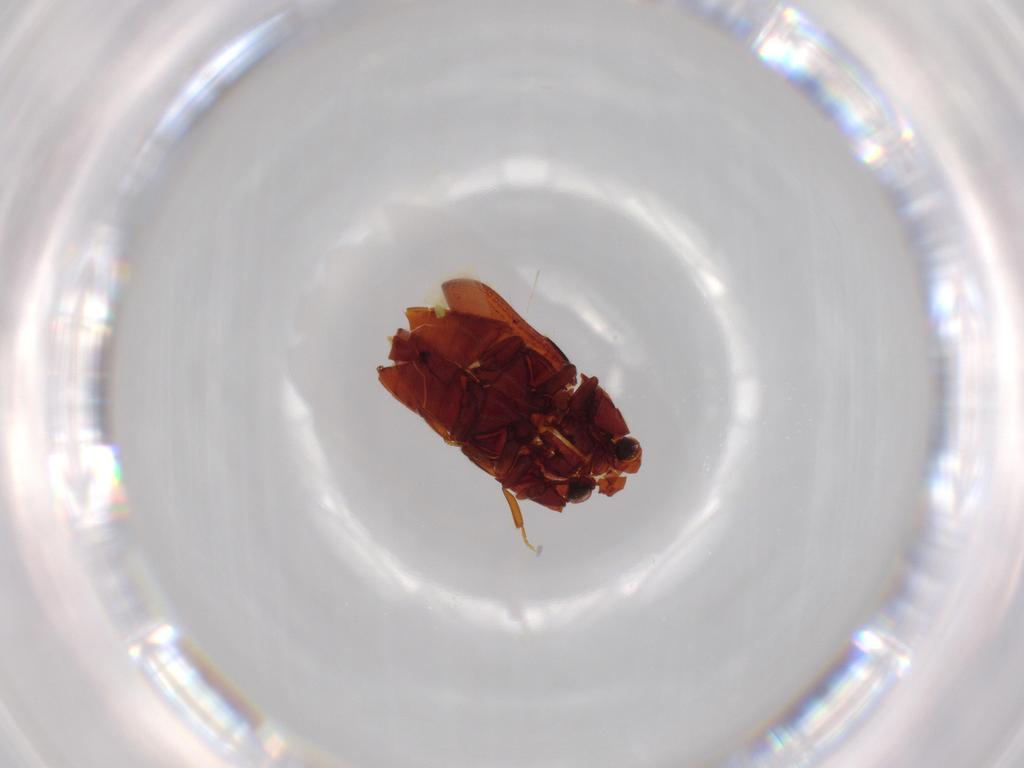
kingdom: Animalia
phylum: Arthropoda
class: Insecta
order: Coleoptera
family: Throscidae
